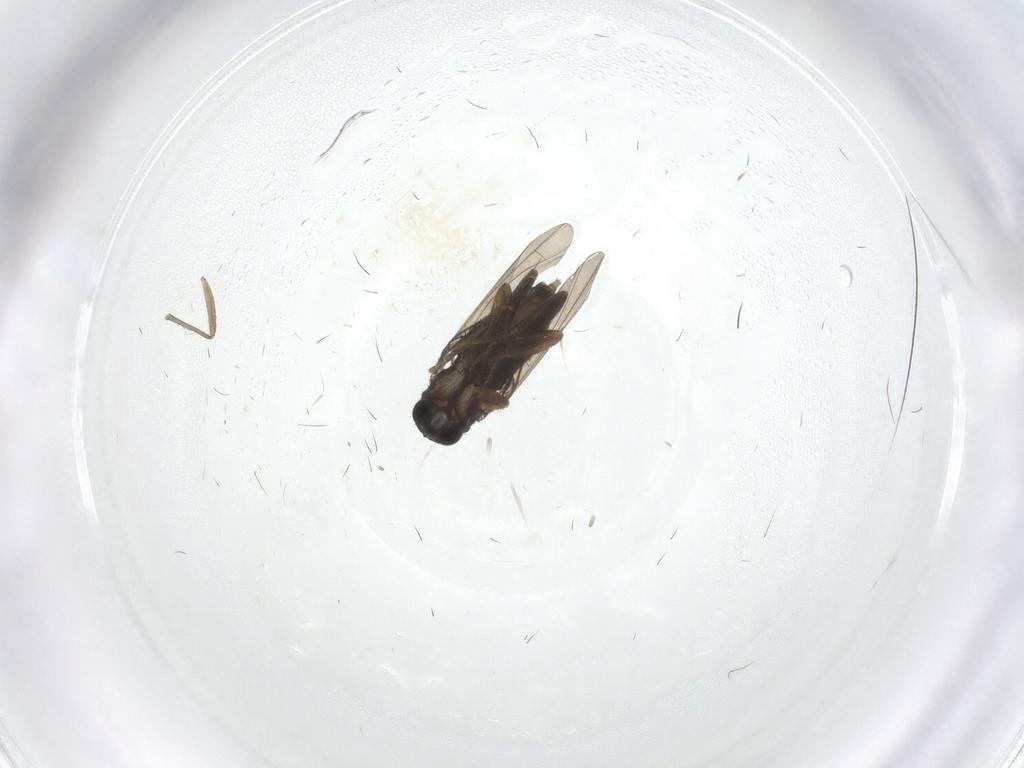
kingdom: Animalia
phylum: Arthropoda
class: Insecta
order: Diptera
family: Phoridae
